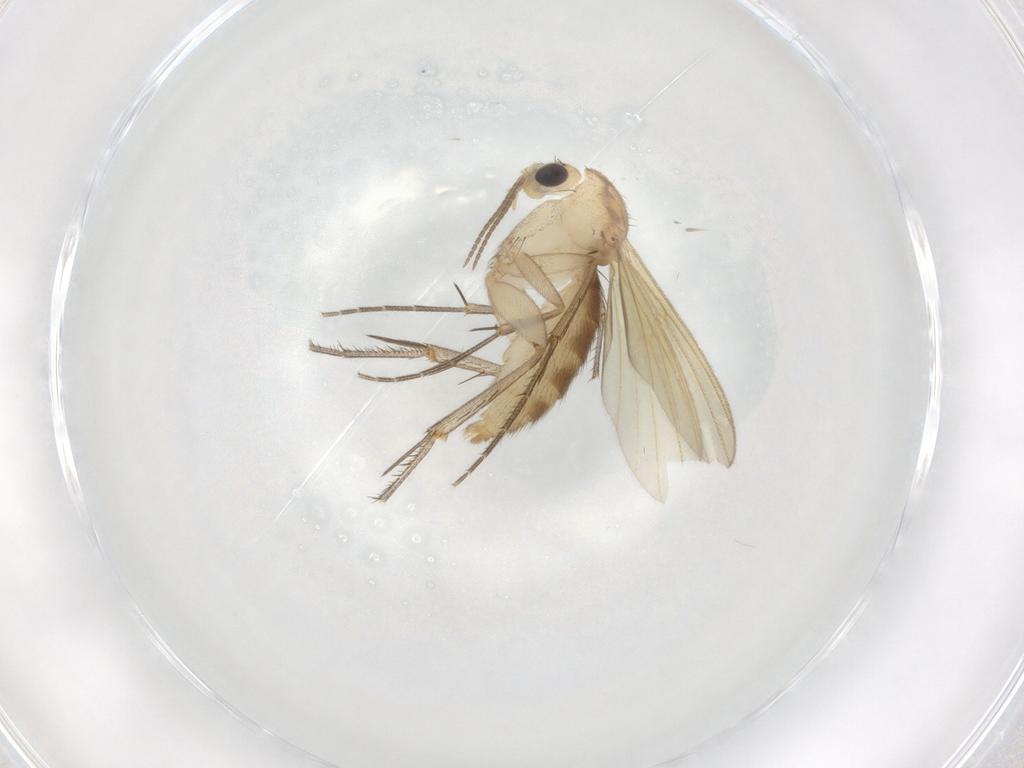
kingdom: Animalia
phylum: Arthropoda
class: Insecta
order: Diptera
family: Mycetophilidae
